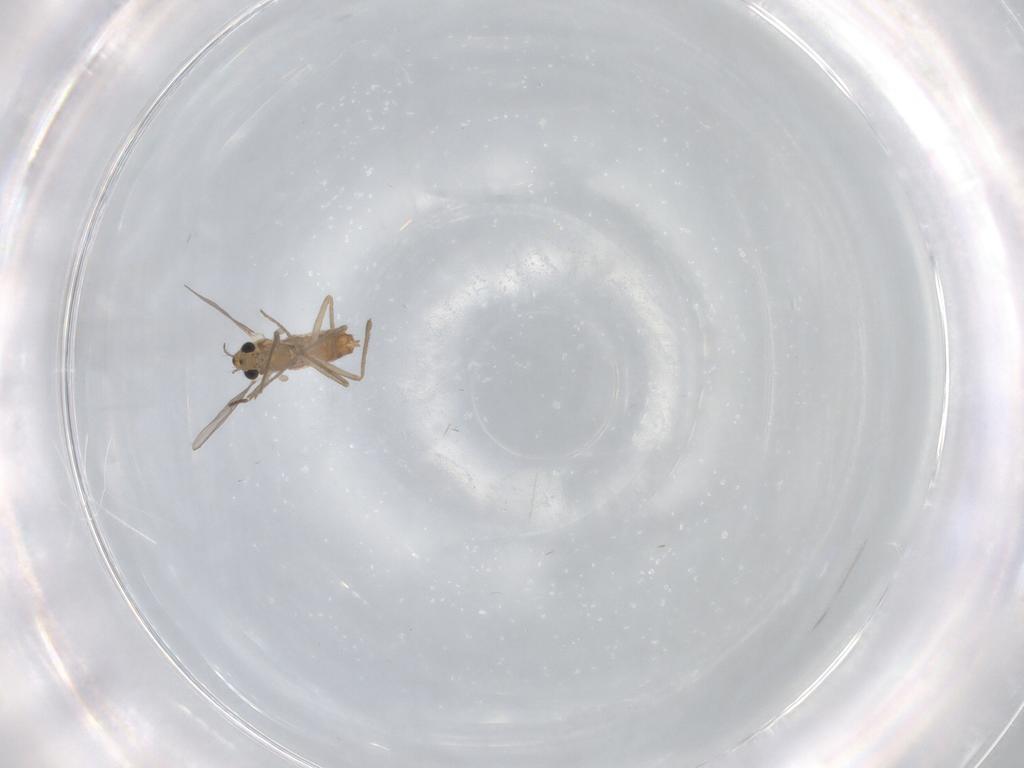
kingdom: Animalia
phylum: Arthropoda
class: Insecta
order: Diptera
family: Chironomidae
